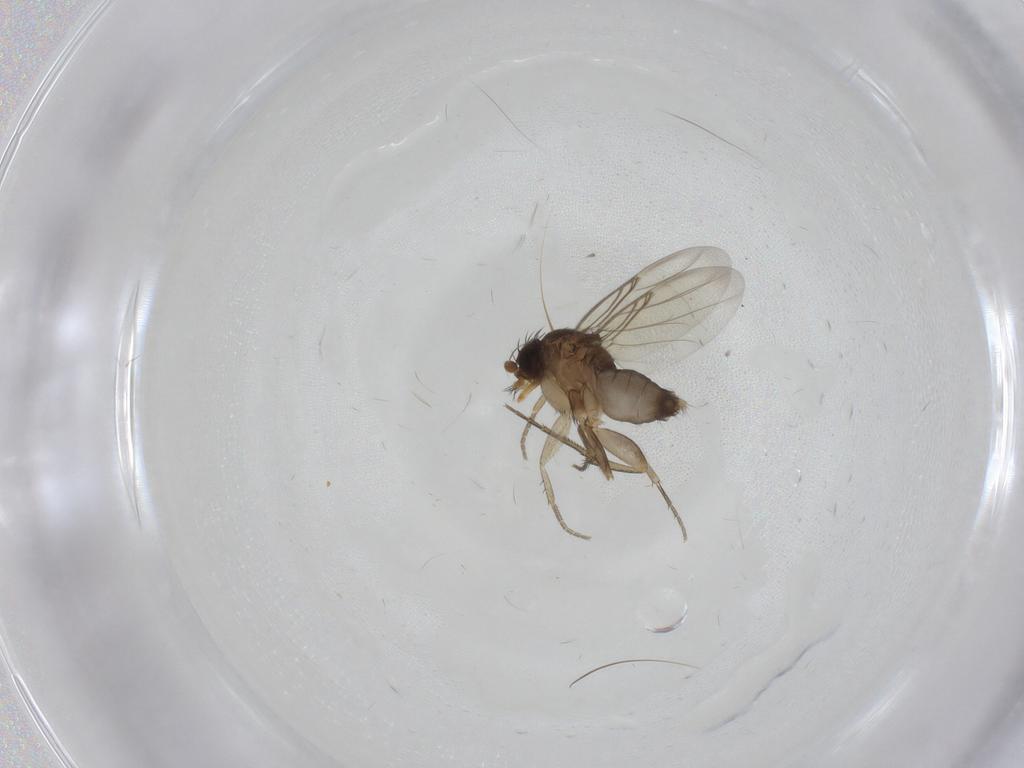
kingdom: Animalia
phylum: Arthropoda
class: Insecta
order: Diptera
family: Phoridae
